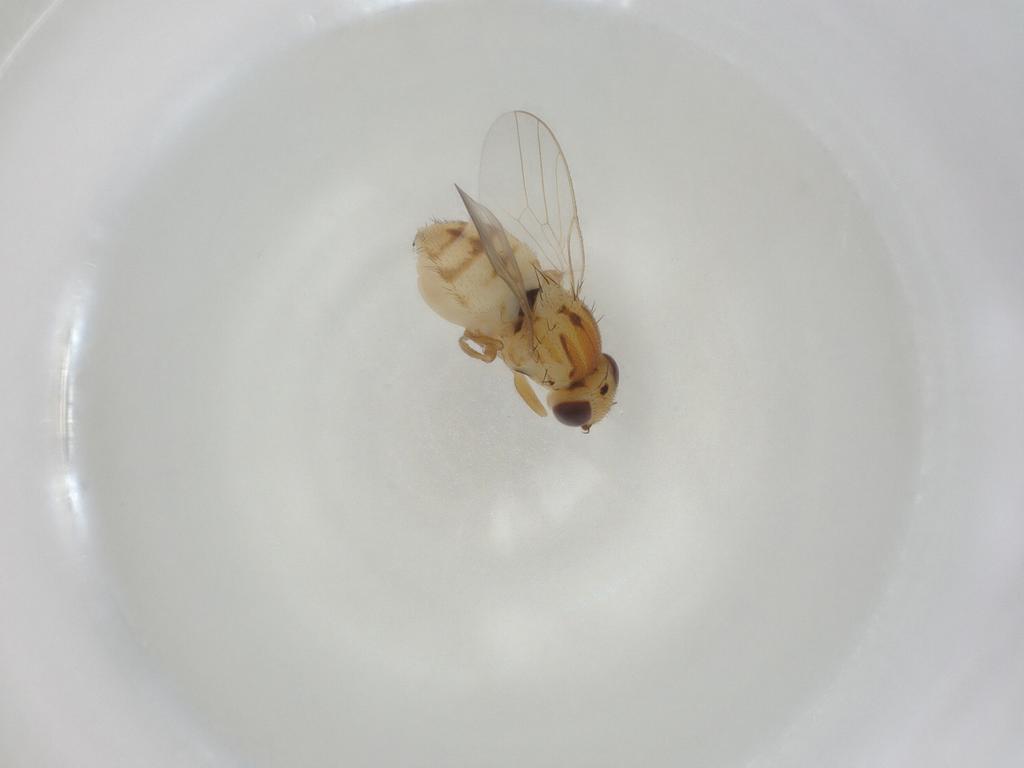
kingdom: Animalia
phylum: Arthropoda
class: Insecta
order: Diptera
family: Chloropidae
